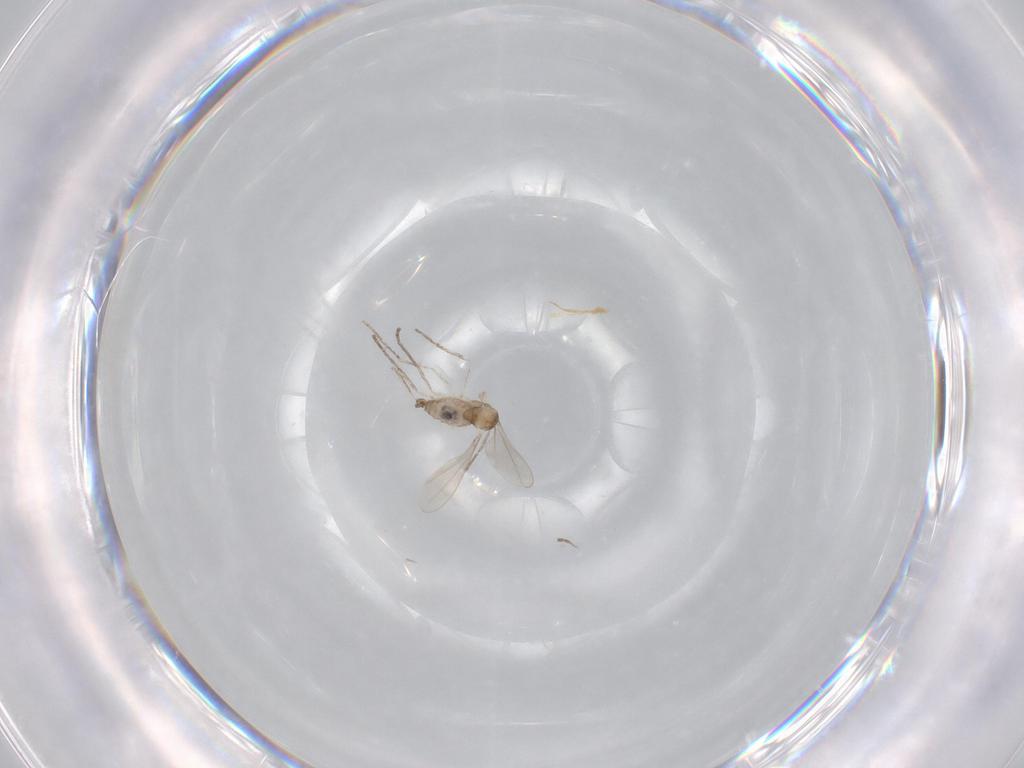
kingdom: Animalia
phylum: Arthropoda
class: Insecta
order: Diptera
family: Cecidomyiidae
